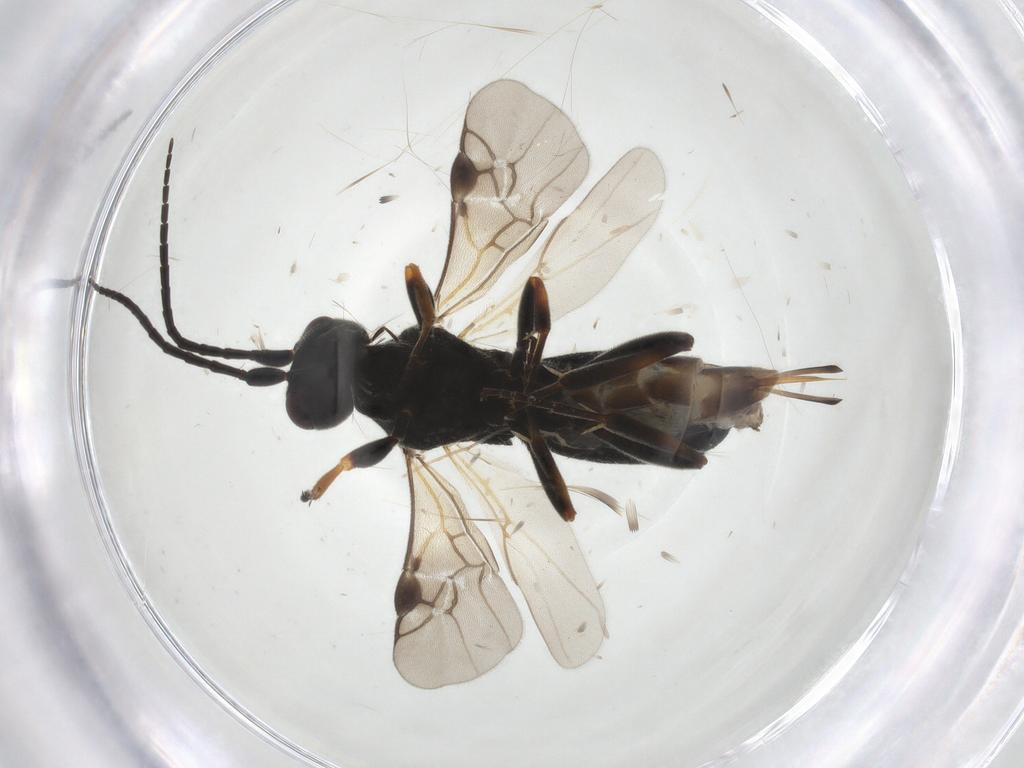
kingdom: Animalia
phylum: Arthropoda
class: Insecta
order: Hymenoptera
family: Braconidae
